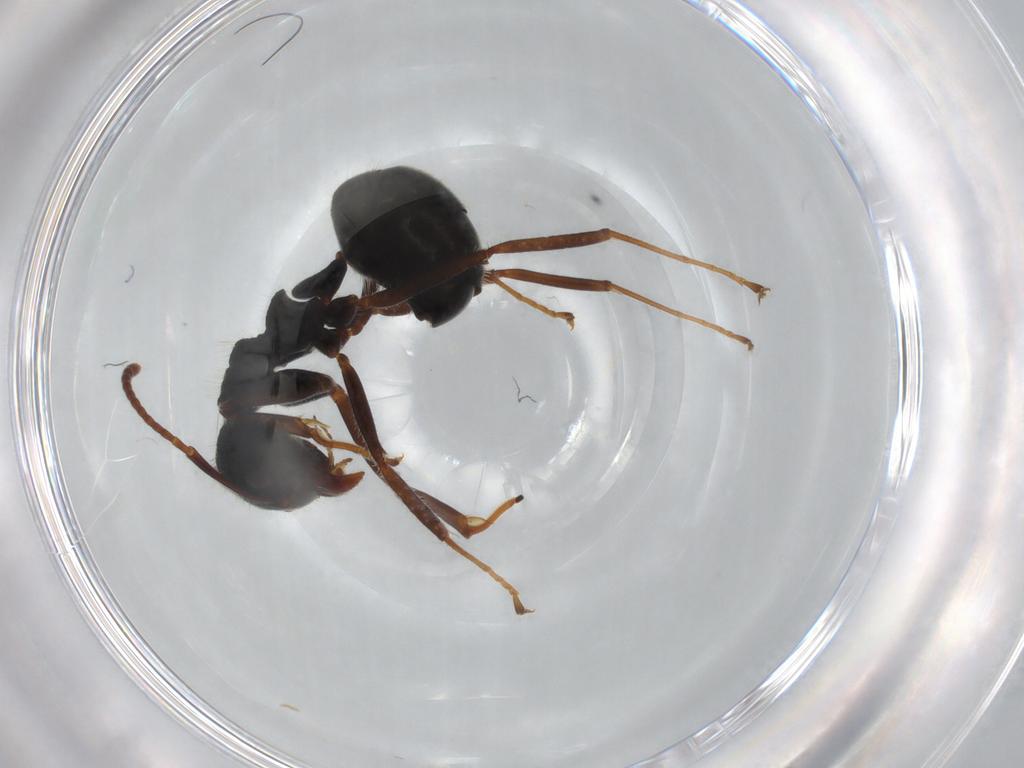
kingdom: Animalia
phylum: Arthropoda
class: Insecta
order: Hymenoptera
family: Formicidae
